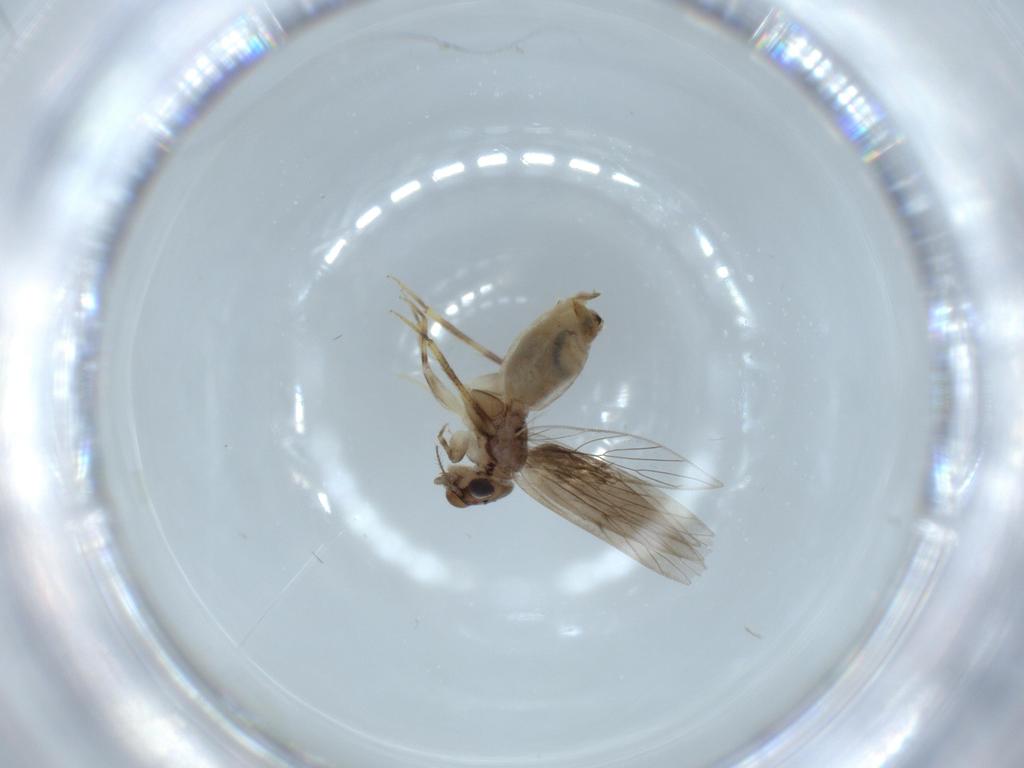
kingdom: Animalia
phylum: Arthropoda
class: Insecta
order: Psocodea
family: Lepidopsocidae
